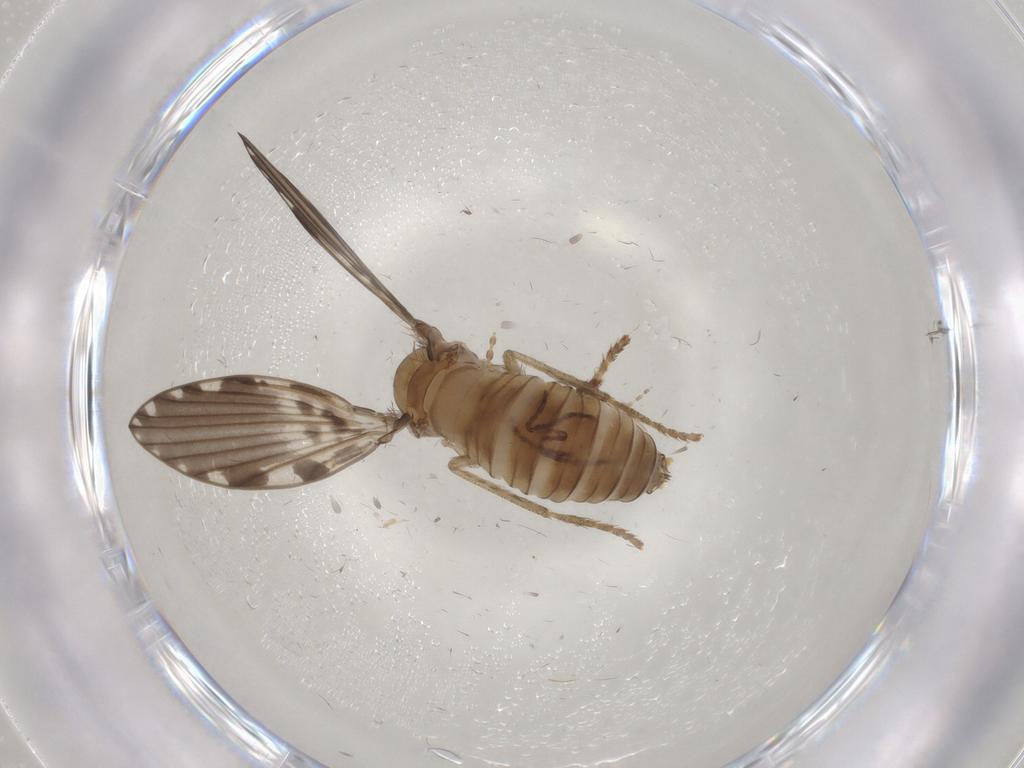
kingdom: Animalia
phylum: Arthropoda
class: Insecta
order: Diptera
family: Psychodidae
